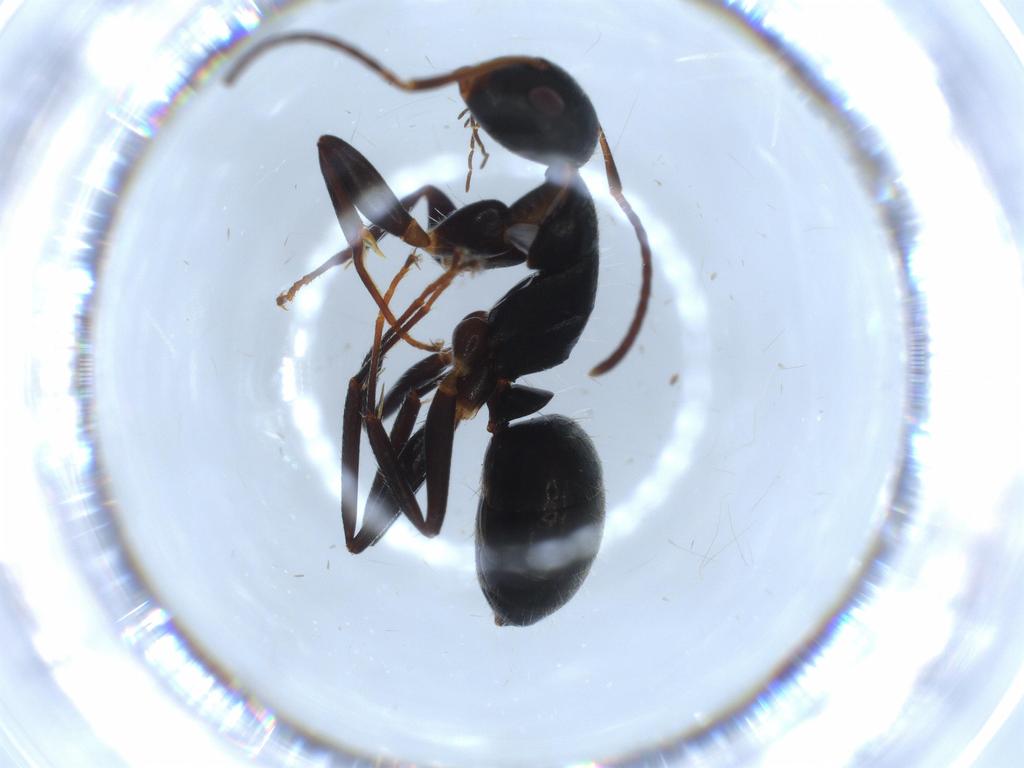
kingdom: Animalia
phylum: Arthropoda
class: Insecta
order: Hymenoptera
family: Formicidae
